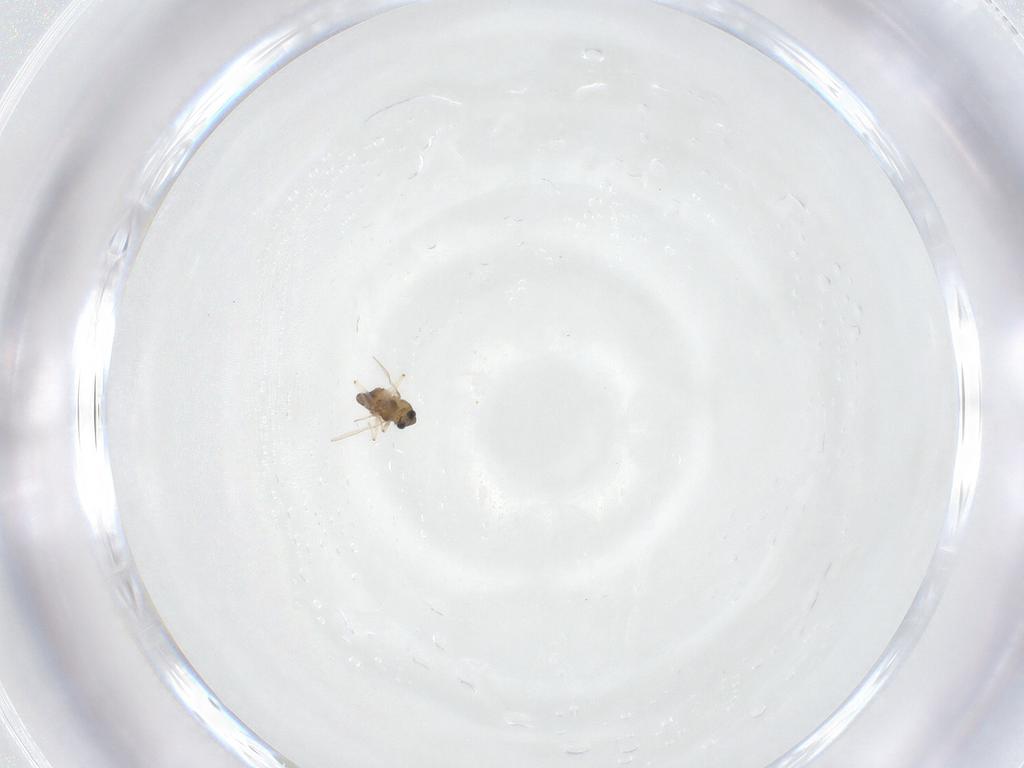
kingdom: Animalia
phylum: Arthropoda
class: Insecta
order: Diptera
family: Chironomidae
